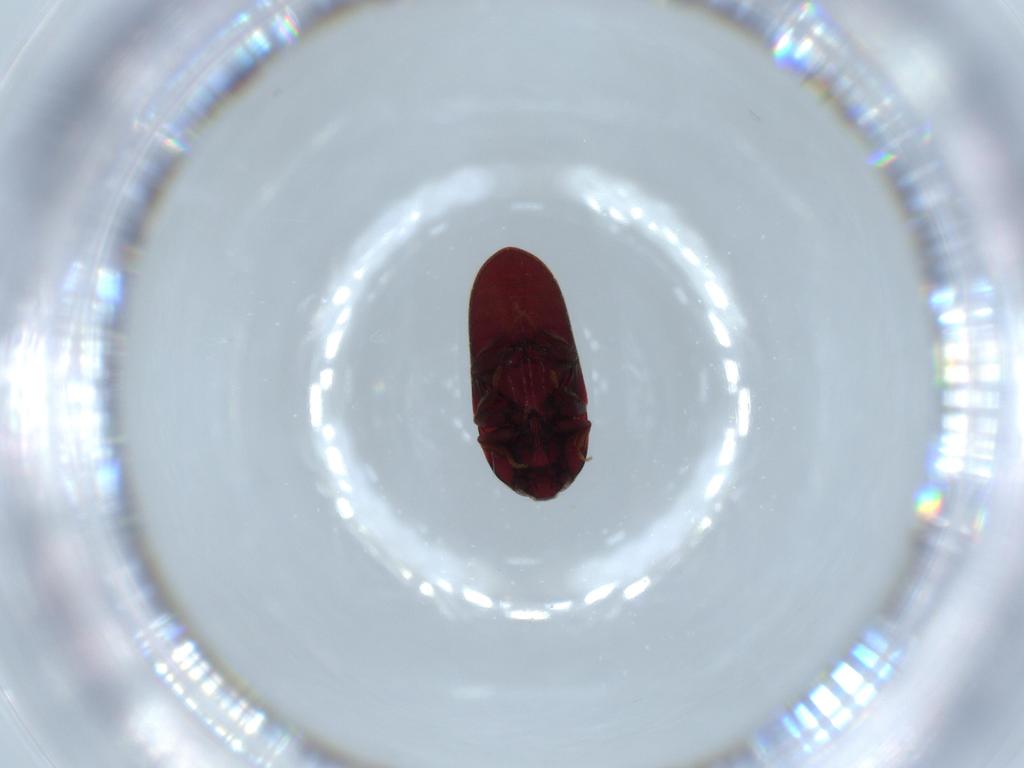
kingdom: Animalia
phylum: Arthropoda
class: Insecta
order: Coleoptera
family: Throscidae
